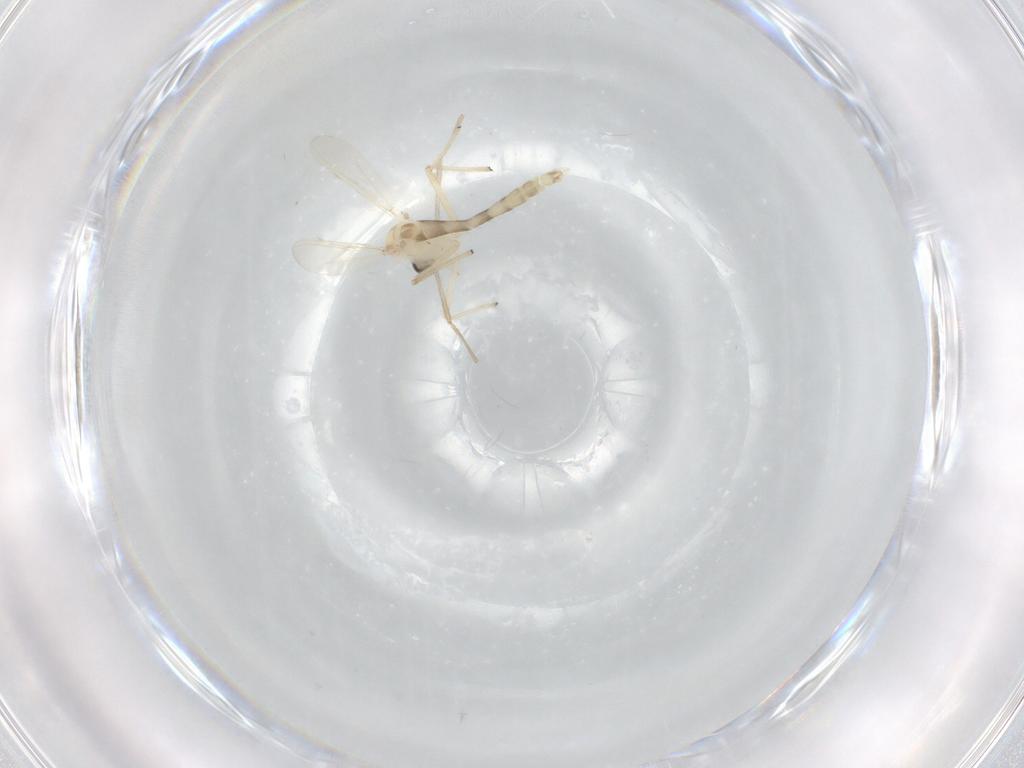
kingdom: Animalia
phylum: Arthropoda
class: Insecta
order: Diptera
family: Chironomidae
